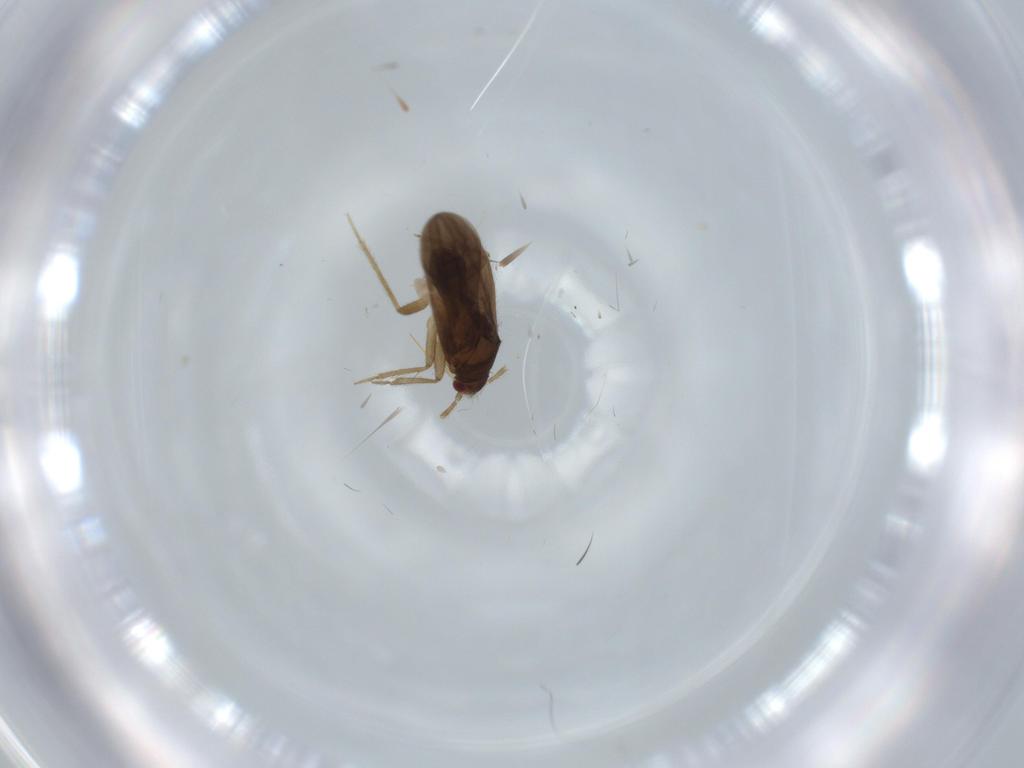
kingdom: Animalia
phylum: Arthropoda
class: Insecta
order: Hemiptera
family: Ceratocombidae
